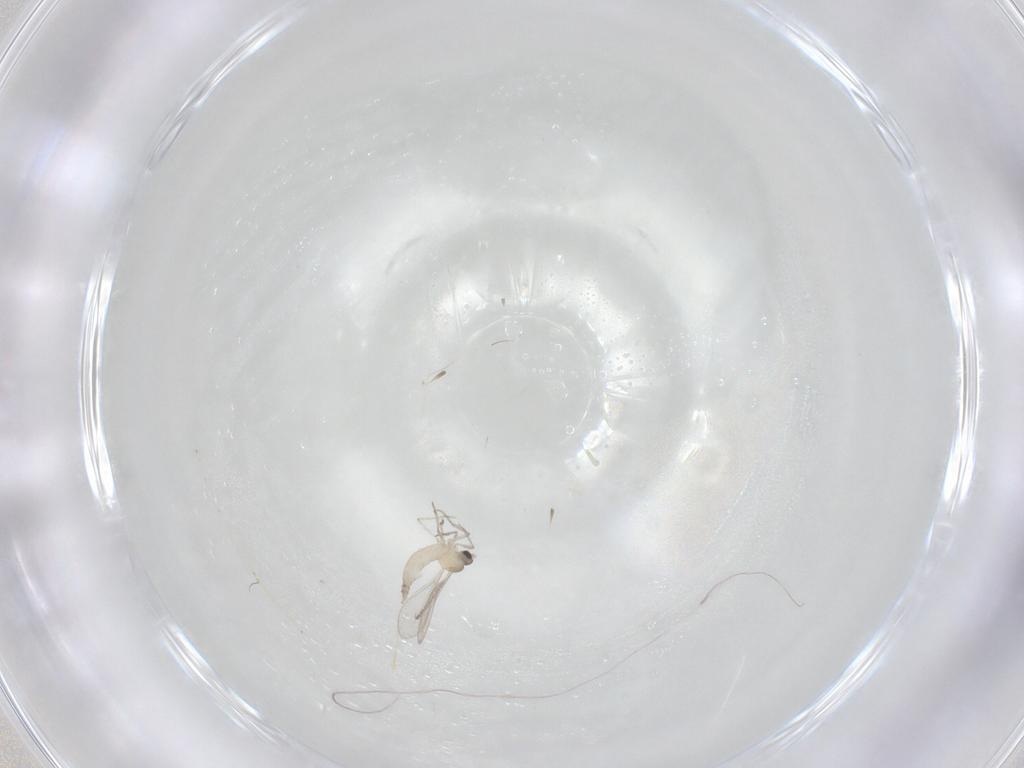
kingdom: Animalia
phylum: Arthropoda
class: Insecta
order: Diptera
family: Cecidomyiidae
